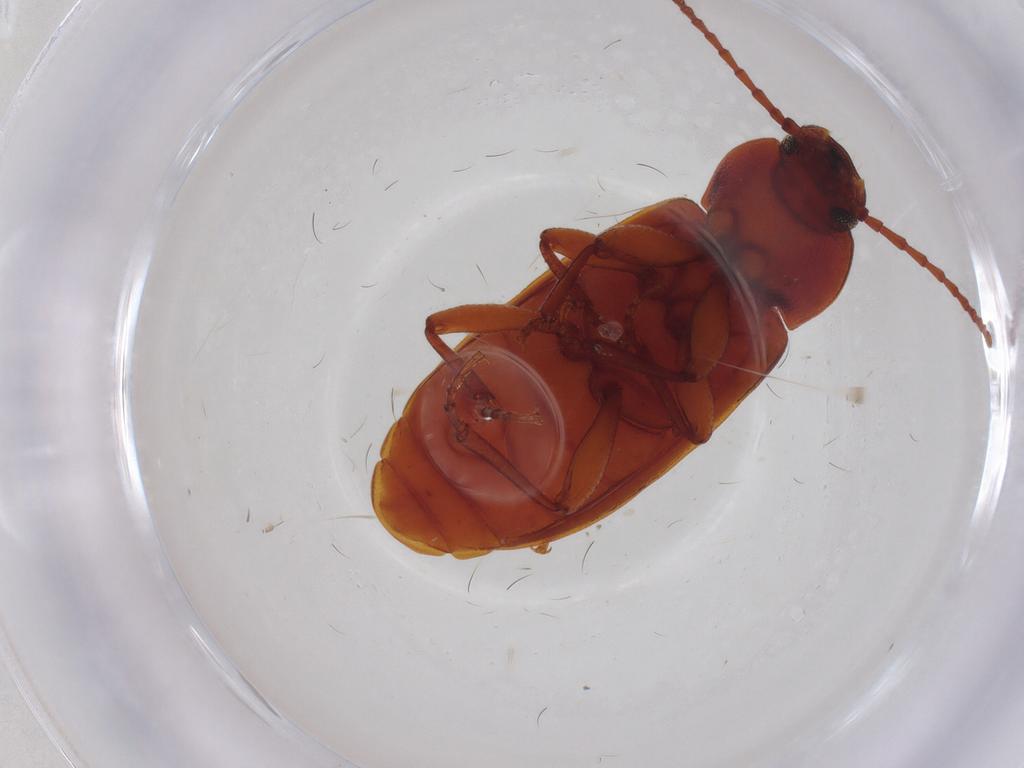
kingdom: Animalia
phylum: Arthropoda
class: Insecta
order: Coleoptera
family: Tenebrionidae
